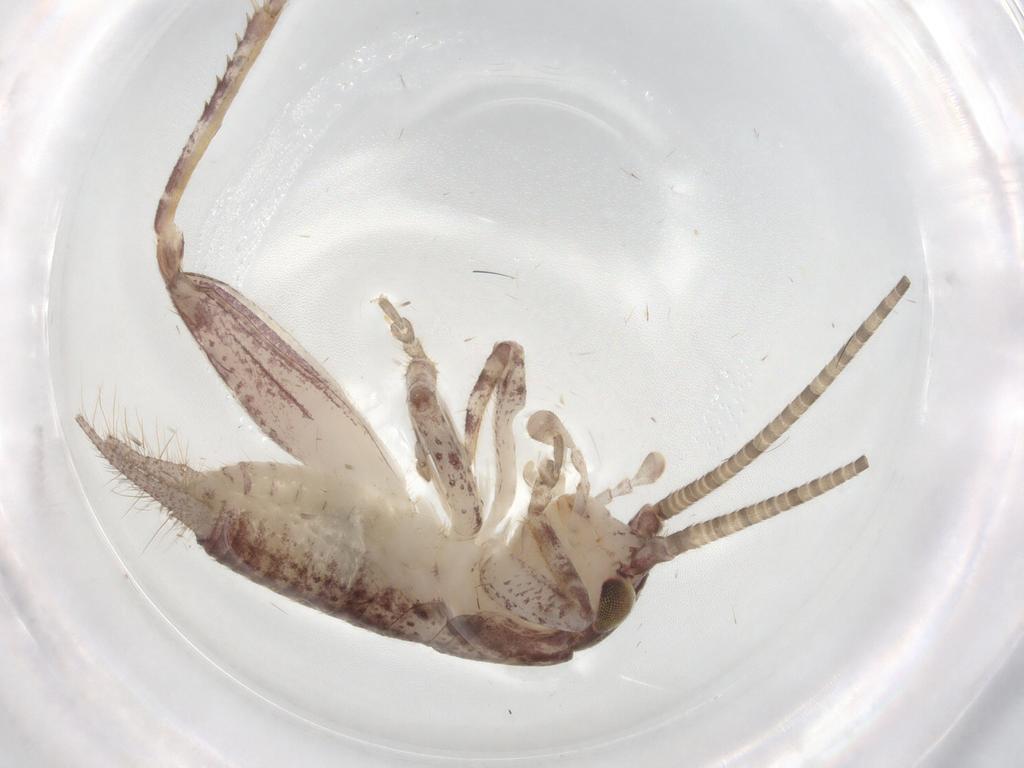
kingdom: Animalia
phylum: Arthropoda
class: Insecta
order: Orthoptera
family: Gryllidae
